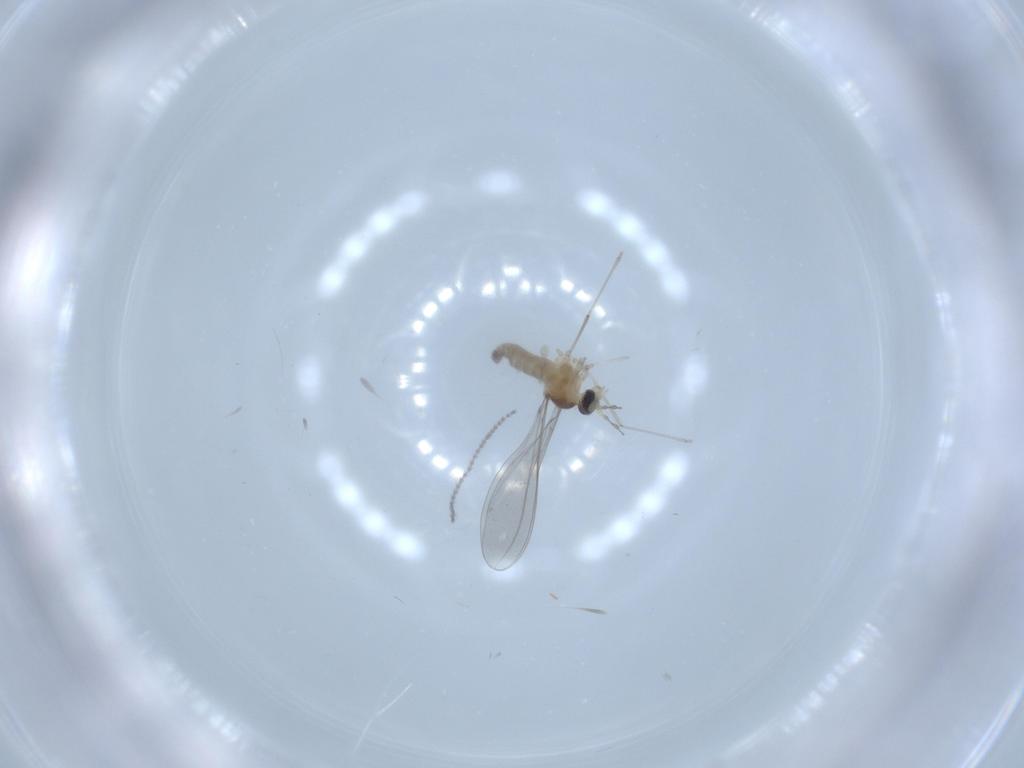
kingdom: Animalia
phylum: Arthropoda
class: Insecta
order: Diptera
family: Cecidomyiidae
